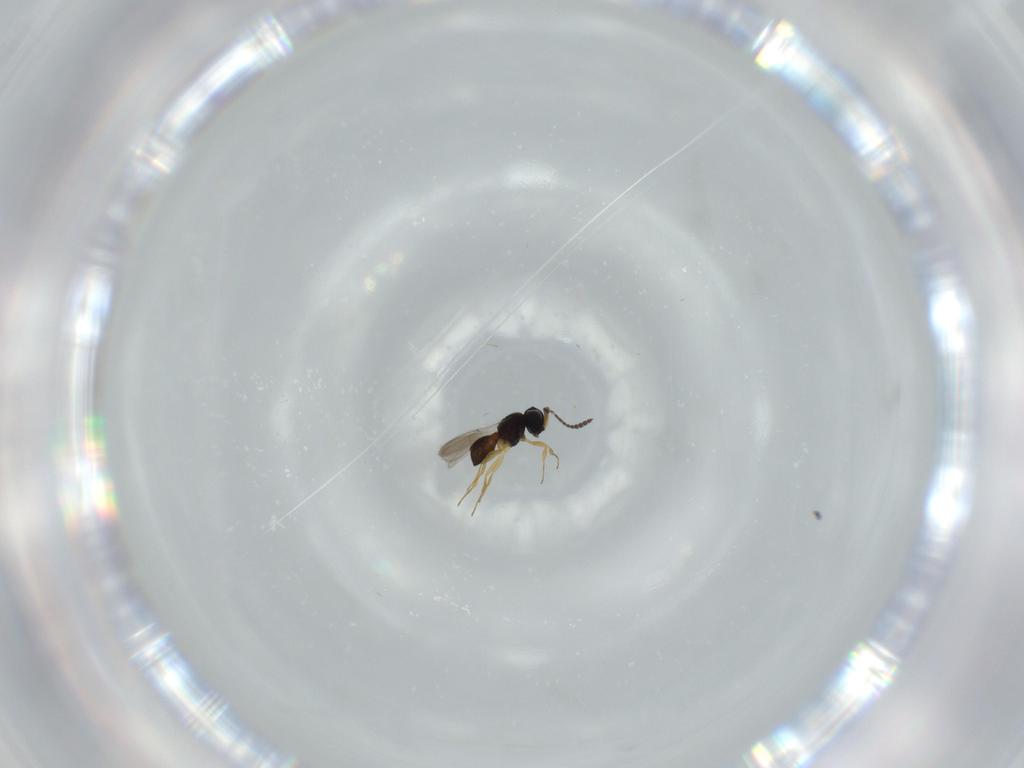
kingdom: Animalia
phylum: Arthropoda
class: Insecta
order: Hymenoptera
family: Scelionidae
